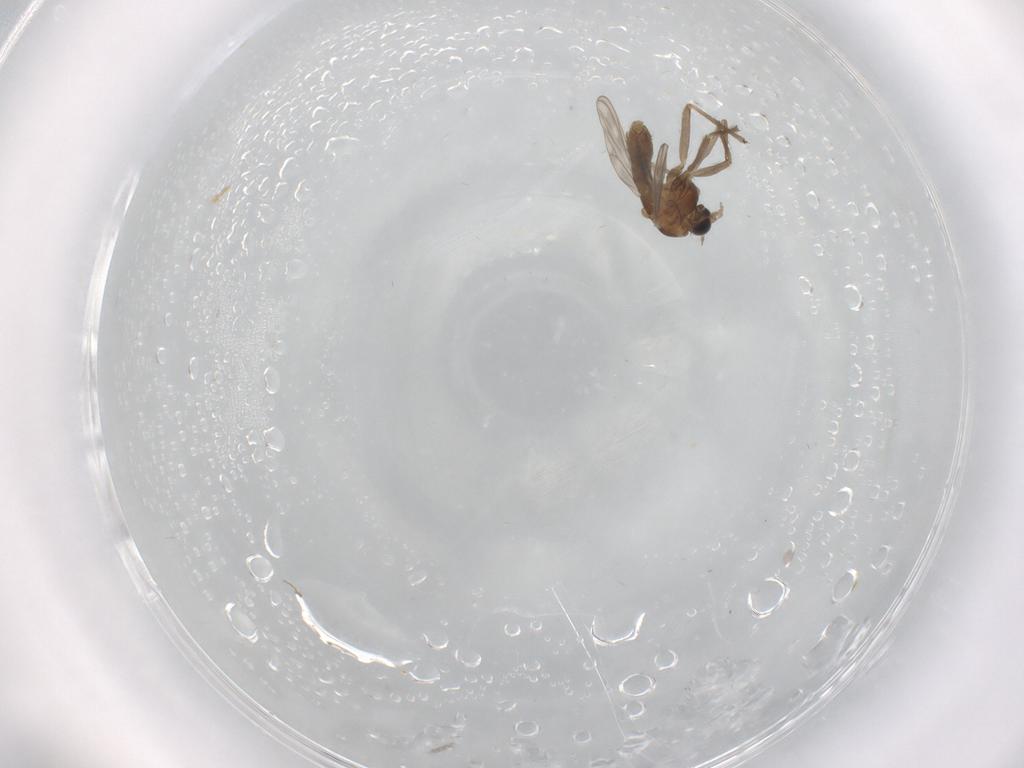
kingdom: Animalia
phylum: Arthropoda
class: Insecta
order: Diptera
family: Chironomidae
